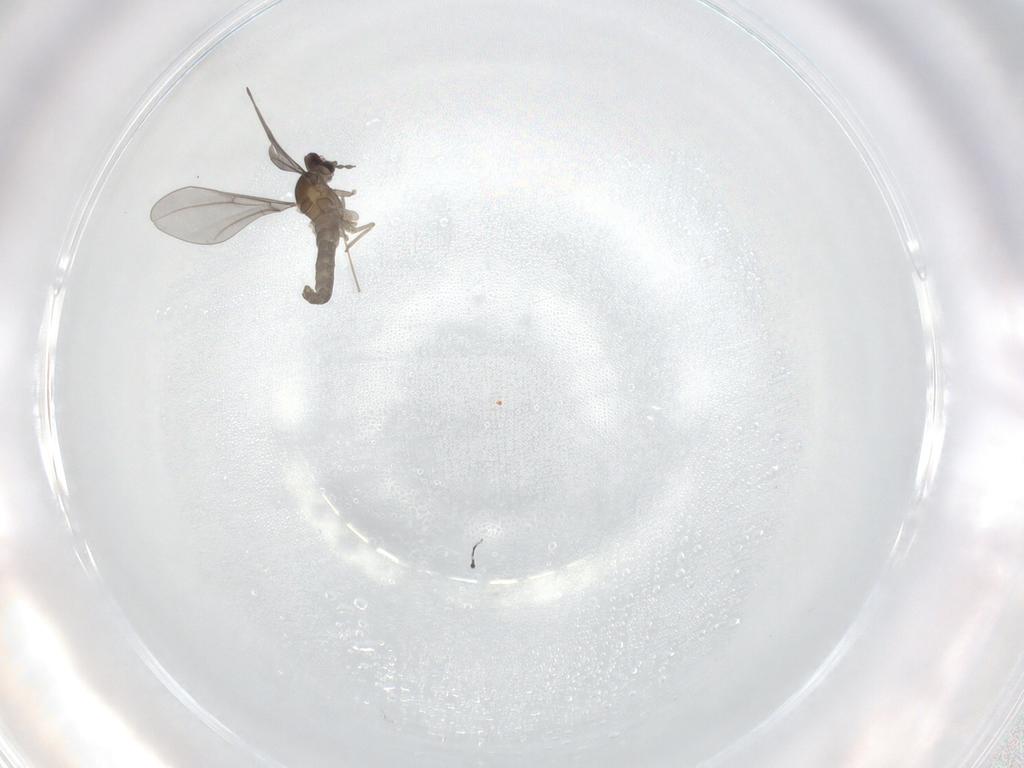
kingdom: Animalia
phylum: Arthropoda
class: Insecta
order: Diptera
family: Cecidomyiidae
